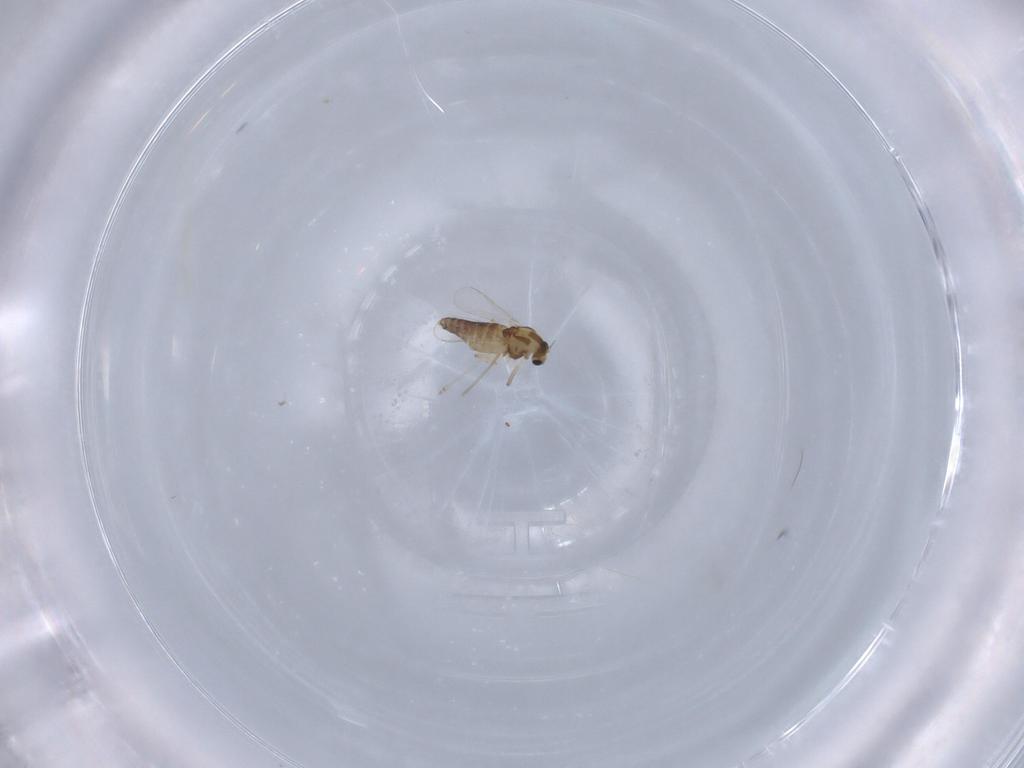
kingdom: Animalia
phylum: Arthropoda
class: Insecta
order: Diptera
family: Chironomidae
